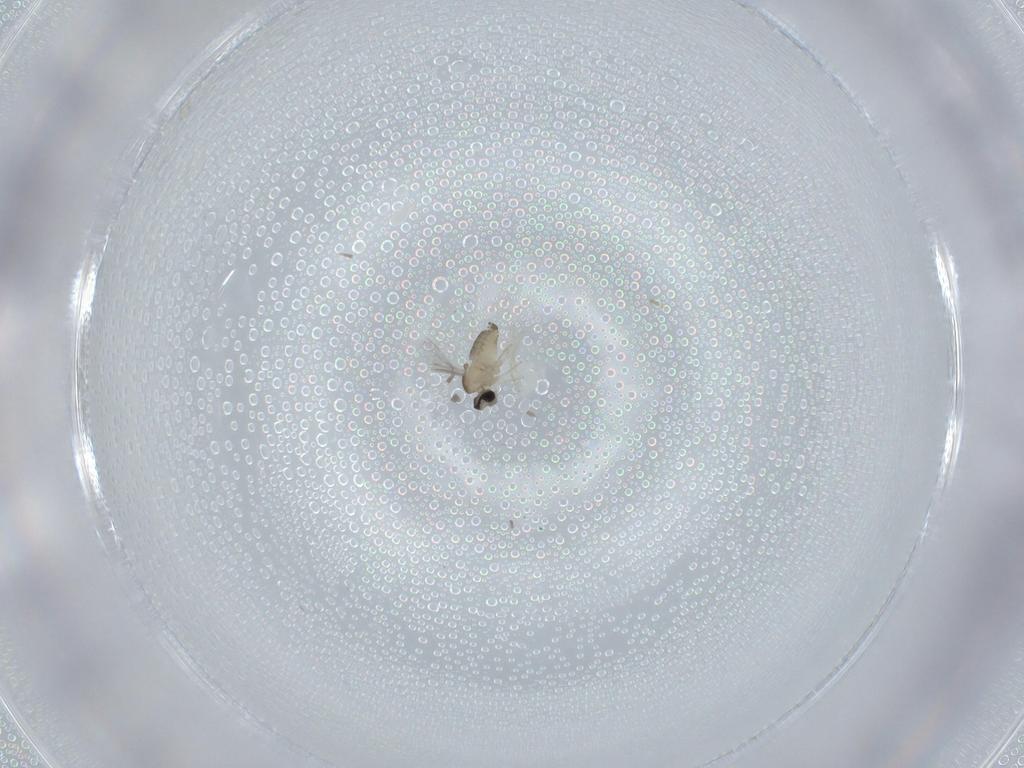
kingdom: Animalia
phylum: Arthropoda
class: Insecta
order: Diptera
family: Cecidomyiidae
